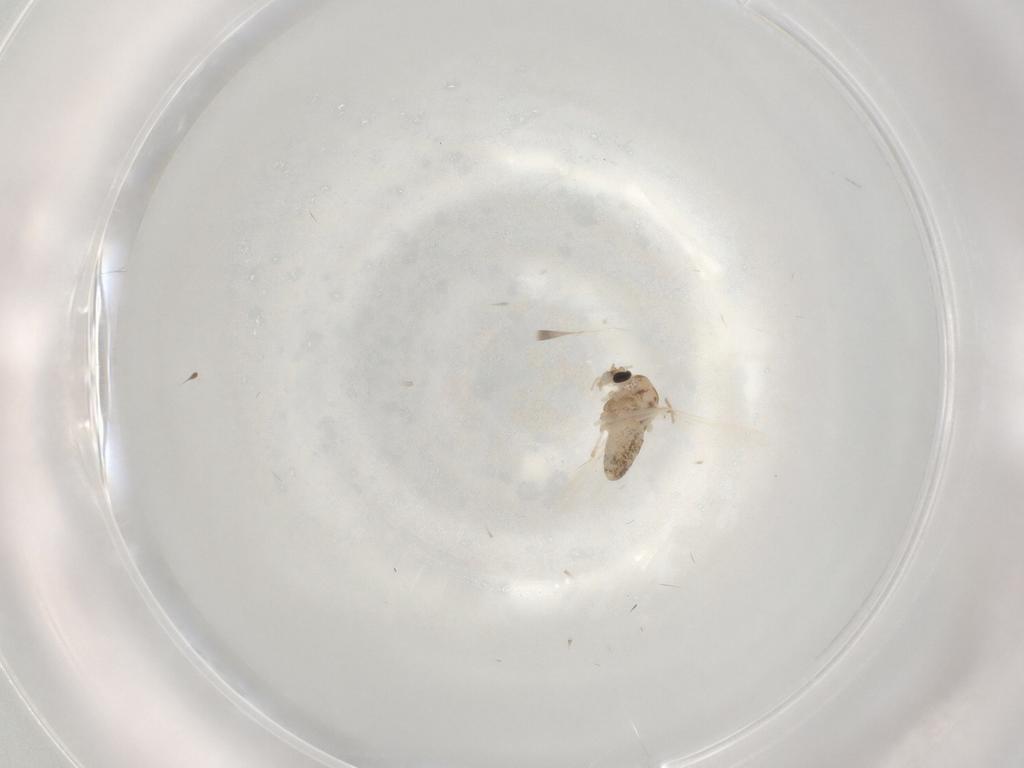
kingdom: Animalia
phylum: Arthropoda
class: Insecta
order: Diptera
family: Chironomidae
